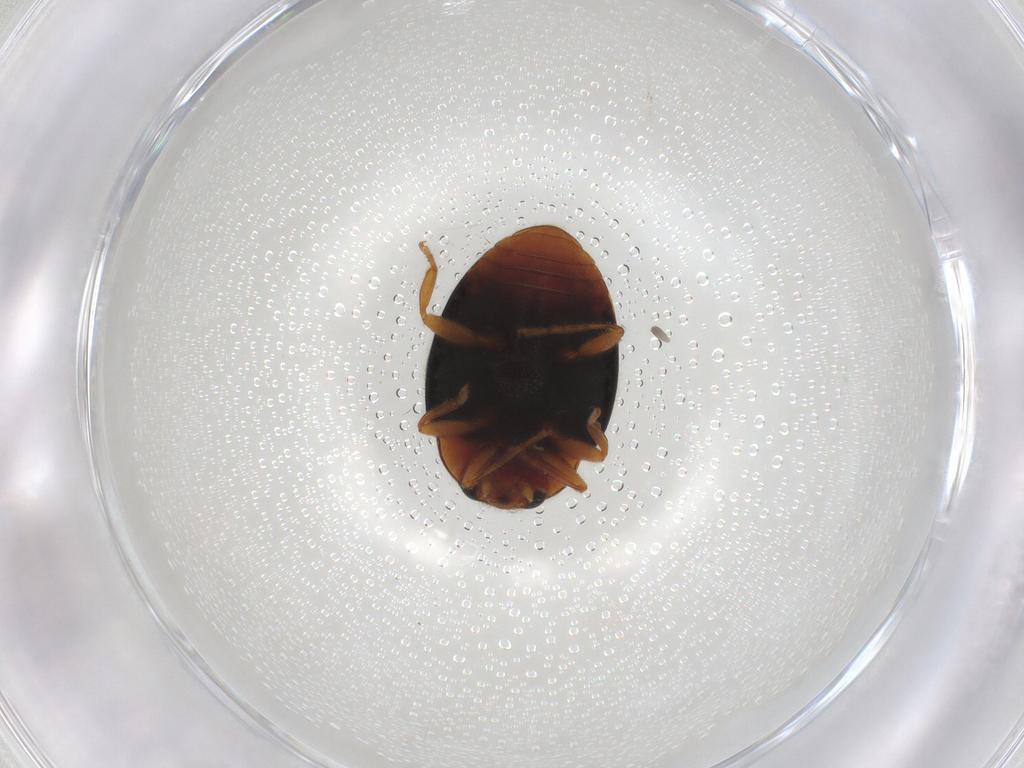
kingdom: Animalia
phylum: Arthropoda
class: Insecta
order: Coleoptera
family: Coccinellidae
